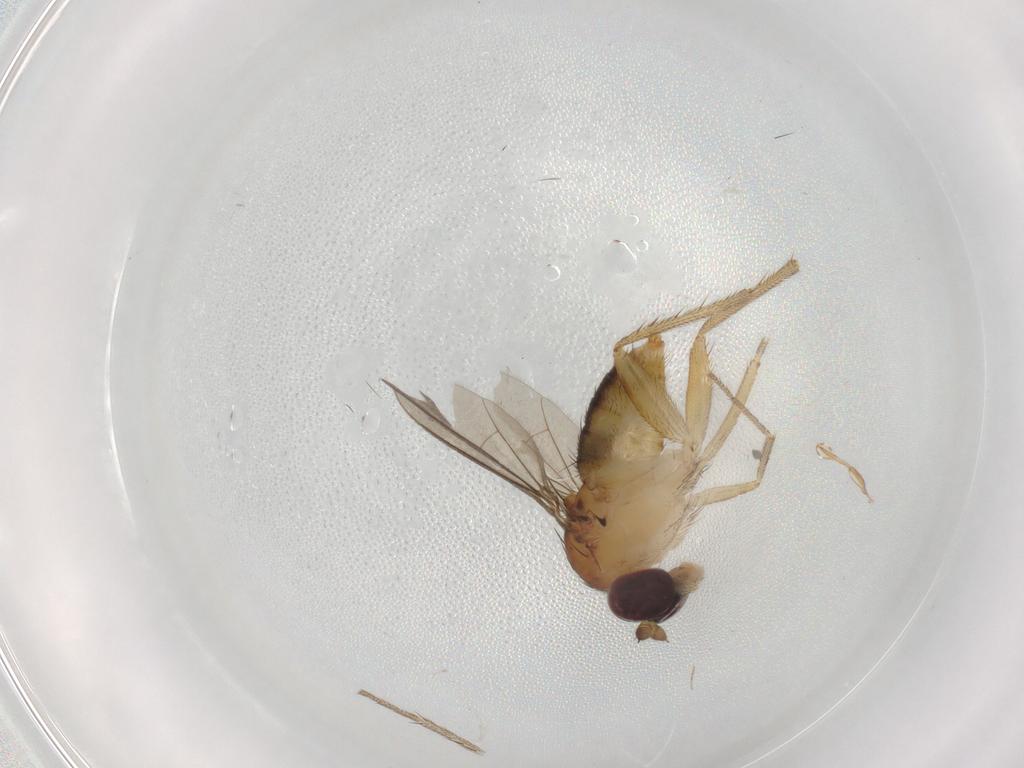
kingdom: Animalia
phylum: Arthropoda
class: Insecta
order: Diptera
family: Dolichopodidae
